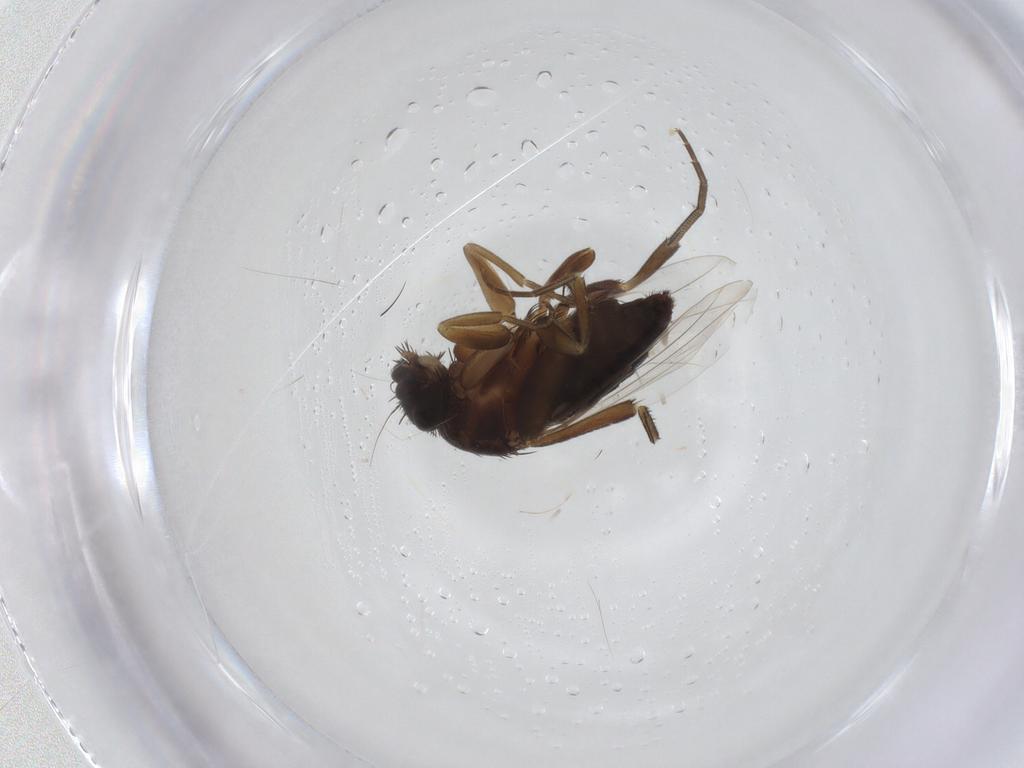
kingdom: Animalia
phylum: Arthropoda
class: Insecta
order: Diptera
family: Phoridae
